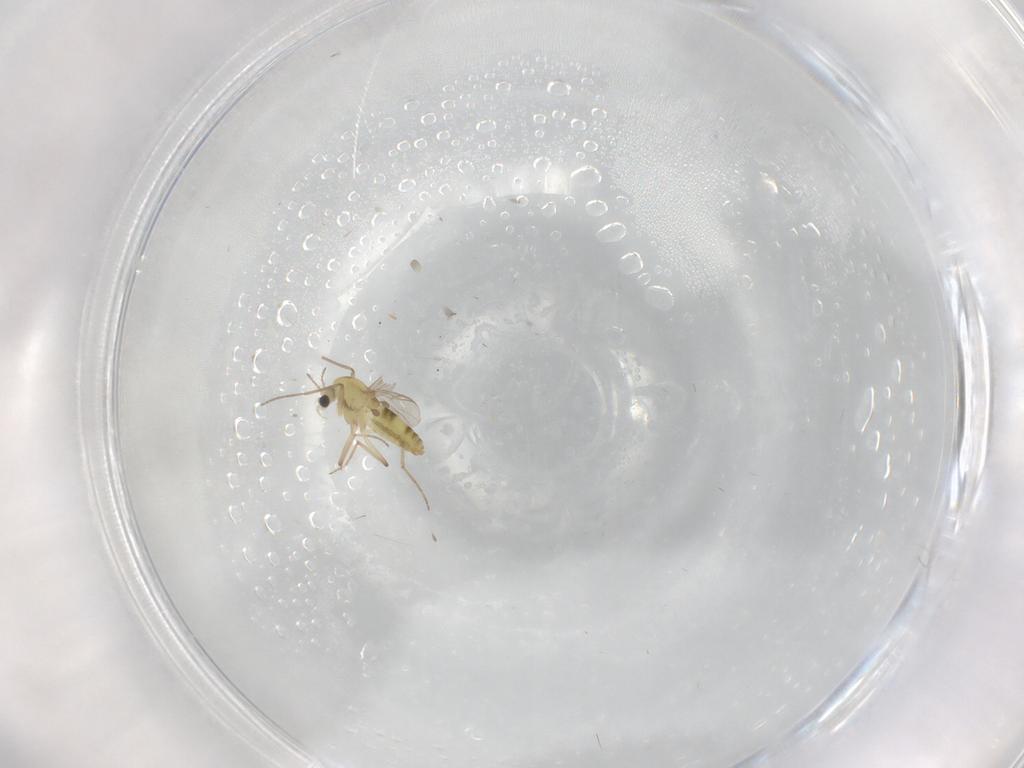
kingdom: Animalia
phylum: Arthropoda
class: Insecta
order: Diptera
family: Chironomidae
